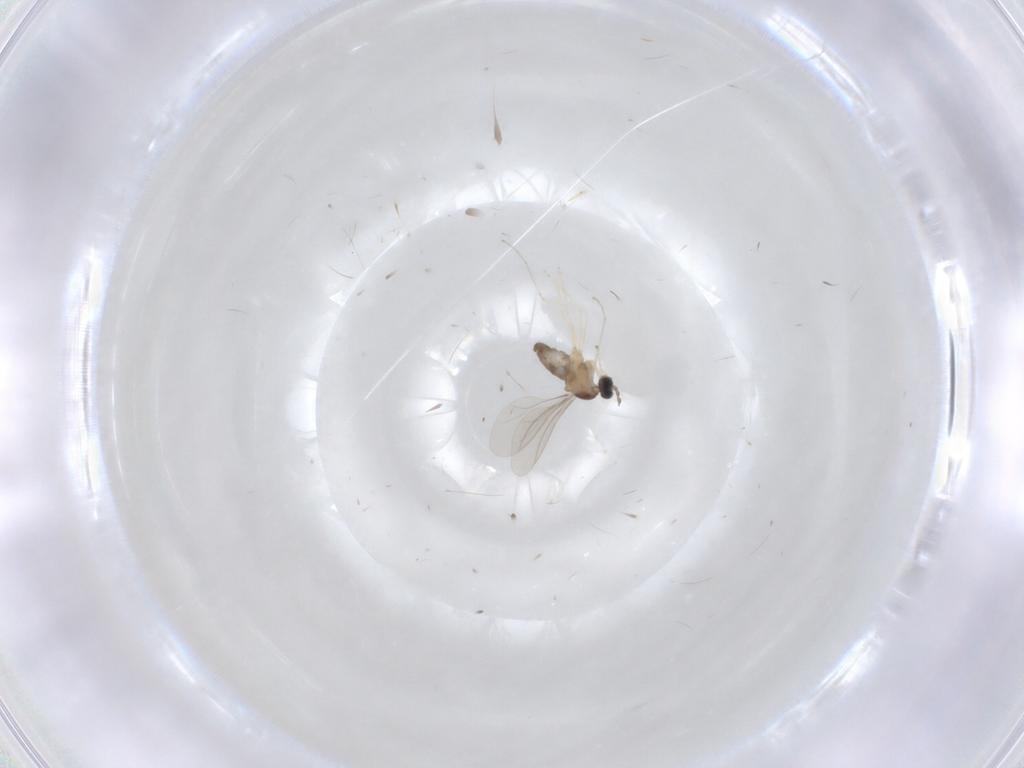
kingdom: Animalia
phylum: Arthropoda
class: Insecta
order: Diptera
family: Cecidomyiidae
